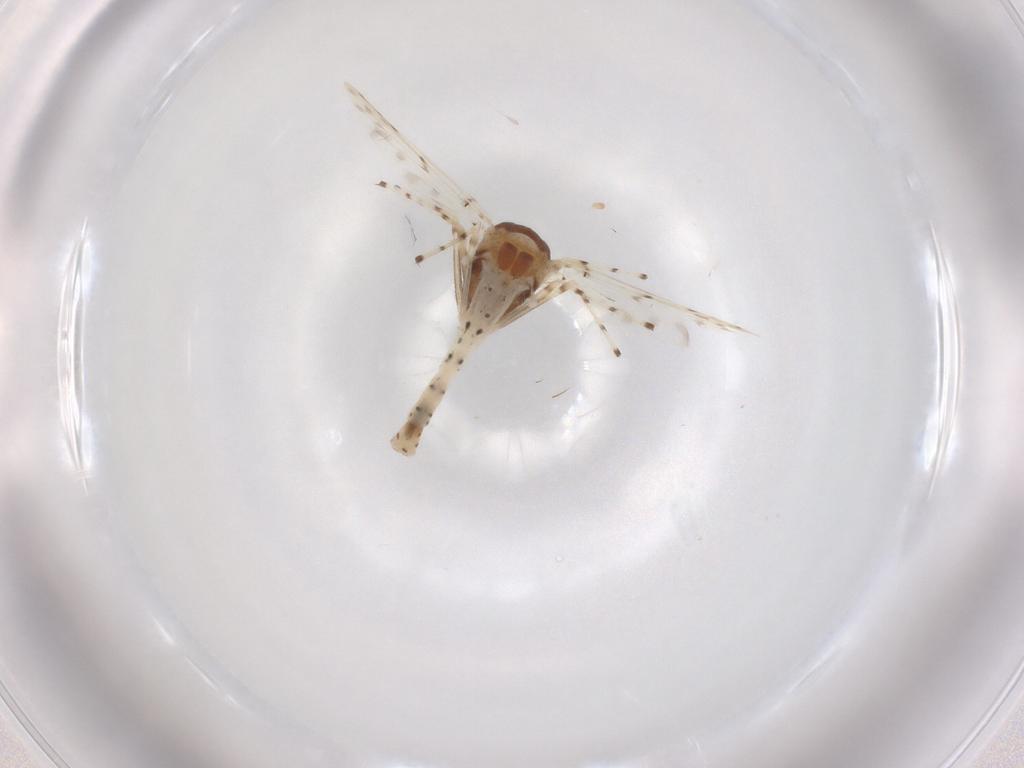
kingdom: Animalia
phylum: Arthropoda
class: Insecta
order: Diptera
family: Chironomidae
